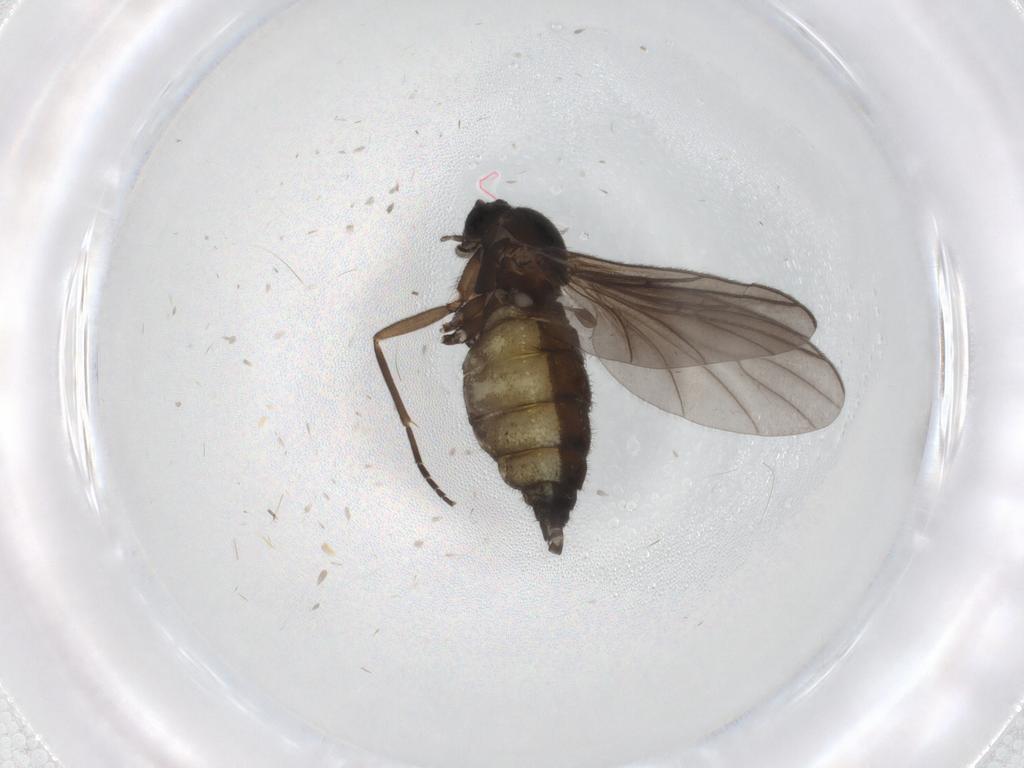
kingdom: Animalia
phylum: Arthropoda
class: Insecta
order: Diptera
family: Sciaridae
